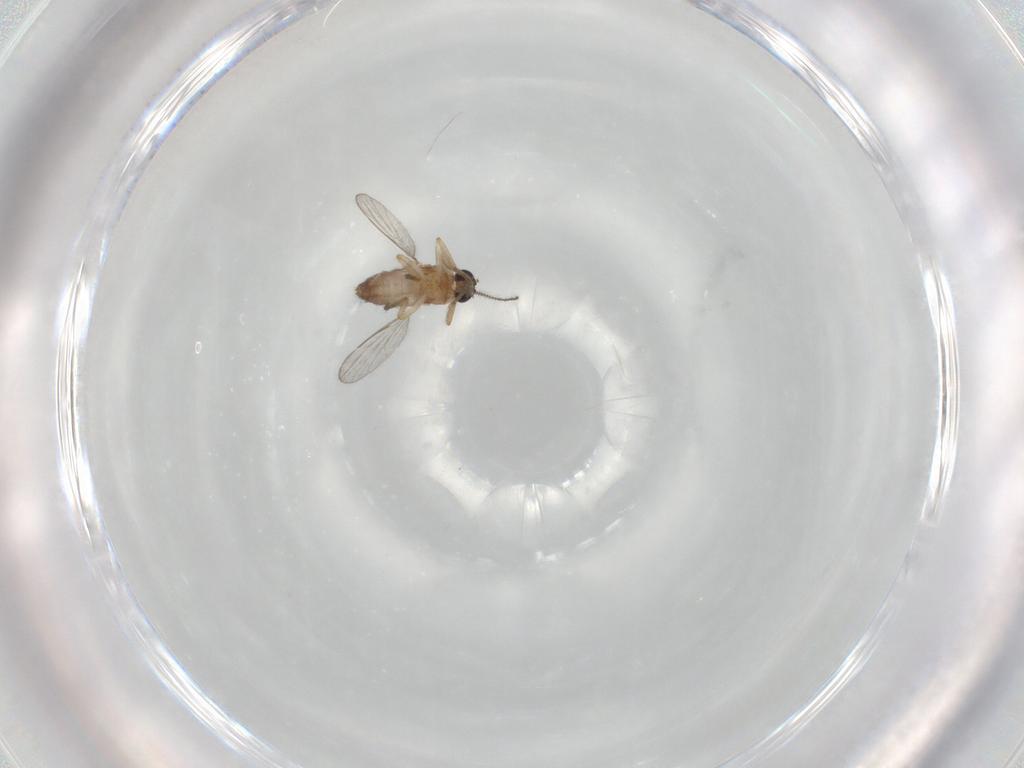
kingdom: Animalia
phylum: Arthropoda
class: Insecta
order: Diptera
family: Ceratopogonidae
